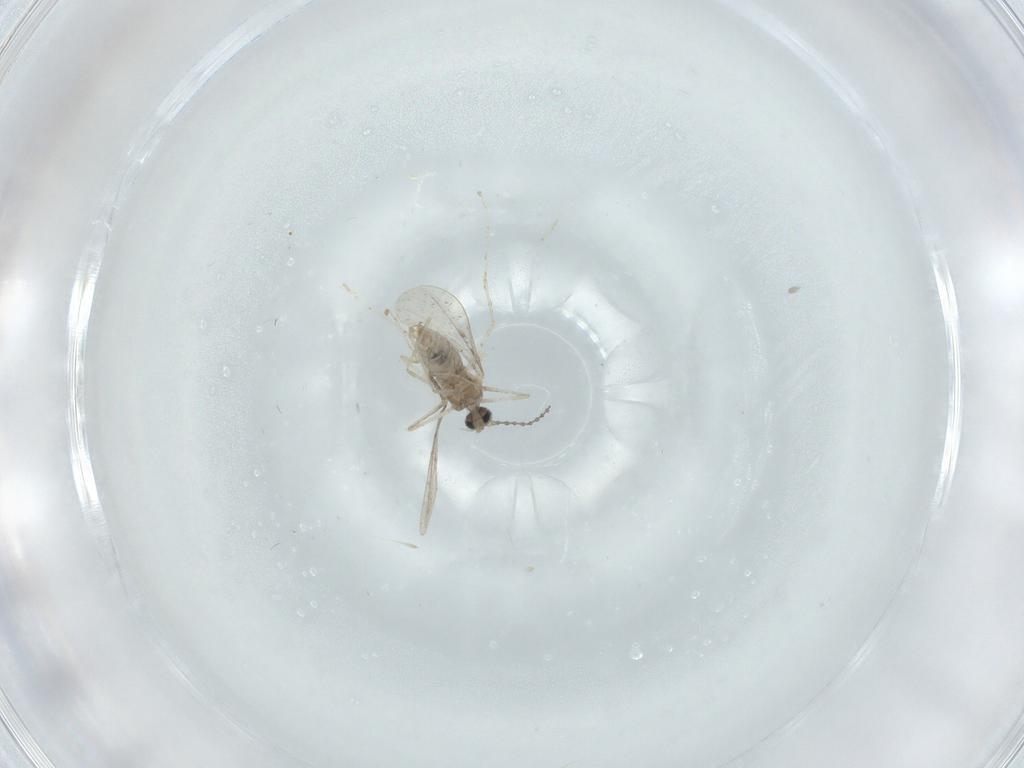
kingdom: Animalia
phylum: Arthropoda
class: Insecta
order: Diptera
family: Cecidomyiidae
